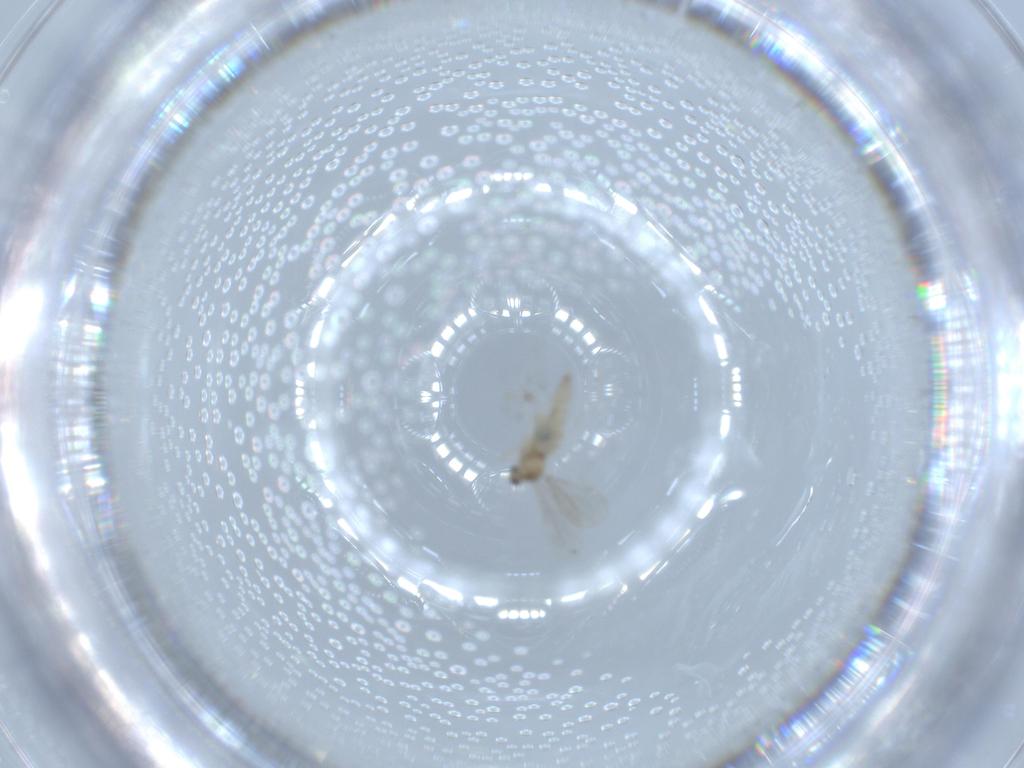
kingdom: Animalia
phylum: Arthropoda
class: Insecta
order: Diptera
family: Cecidomyiidae
